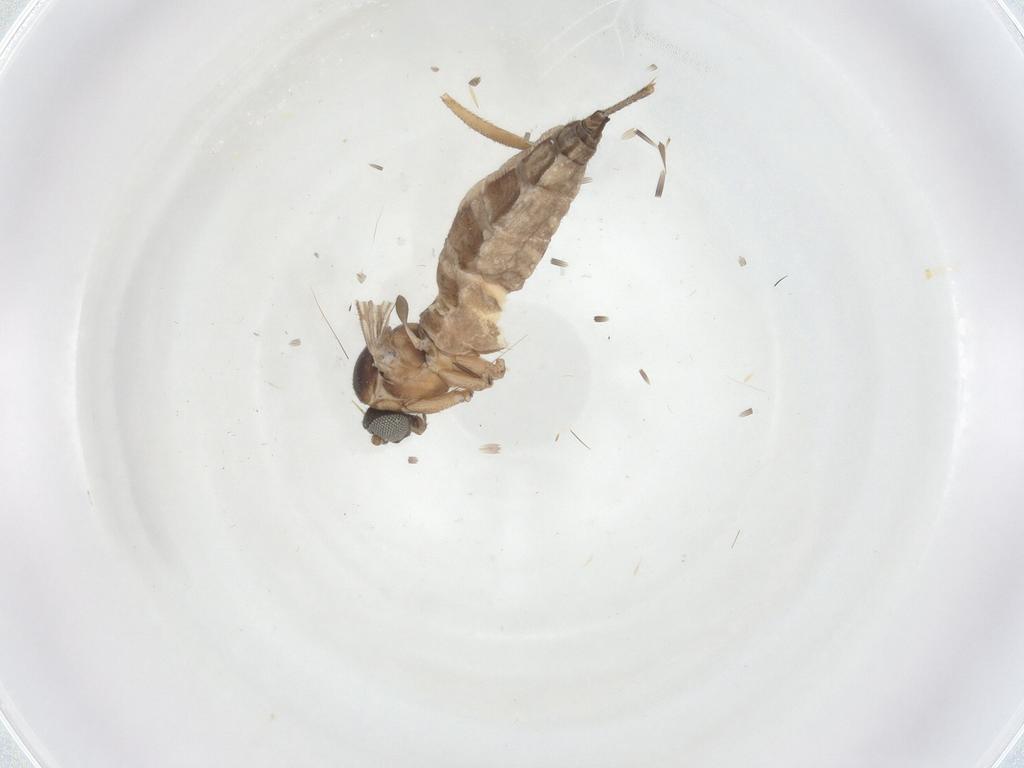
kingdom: Animalia
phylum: Arthropoda
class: Insecta
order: Diptera
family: Sciaridae
